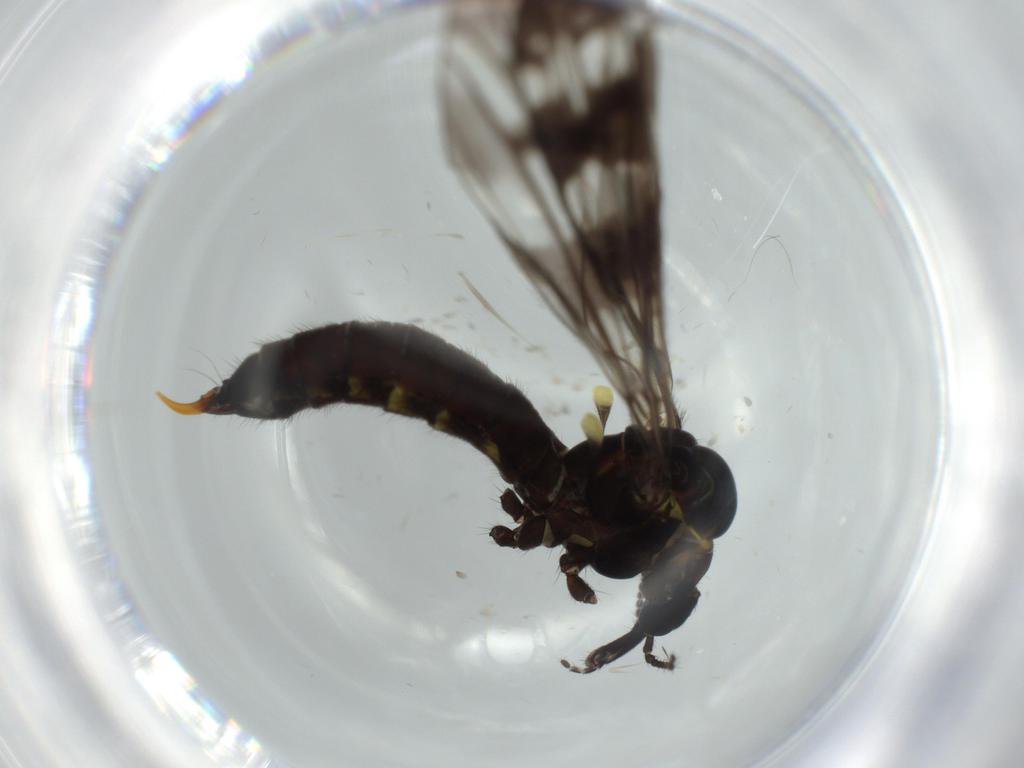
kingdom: Animalia
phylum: Arthropoda
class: Insecta
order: Diptera
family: Limoniidae
